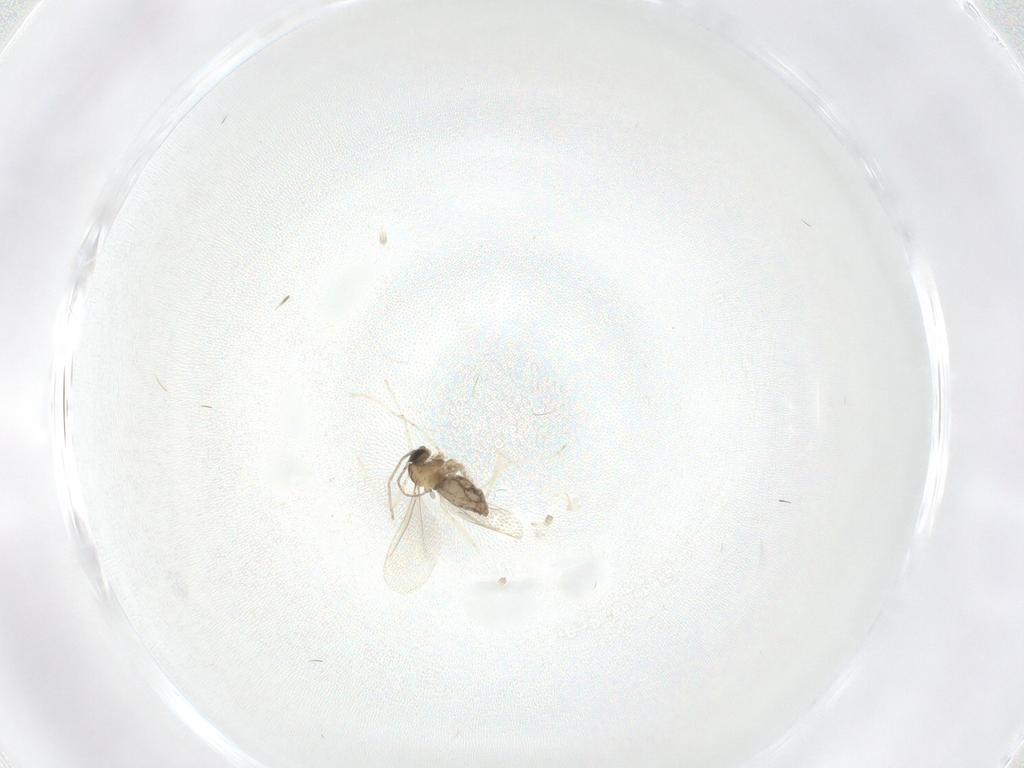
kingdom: Animalia
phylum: Arthropoda
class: Insecta
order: Diptera
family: Cecidomyiidae
